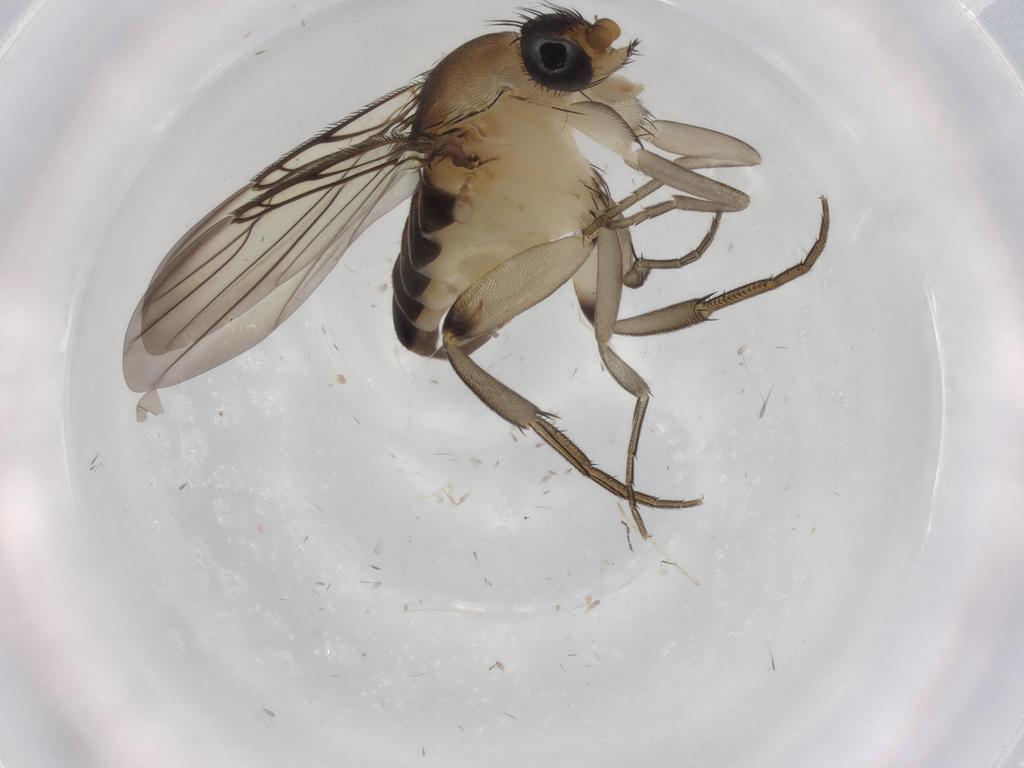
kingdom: Animalia
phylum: Arthropoda
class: Insecta
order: Diptera
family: Sphaeroceridae
